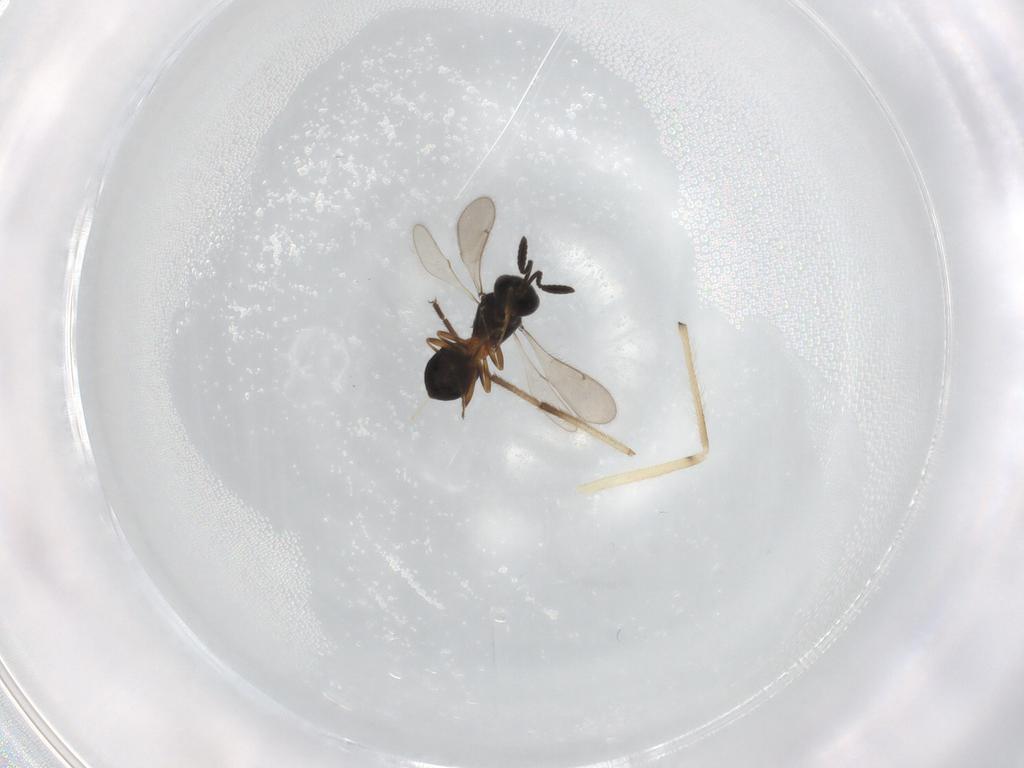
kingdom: Animalia
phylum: Arthropoda
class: Insecta
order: Hymenoptera
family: Scelionidae
